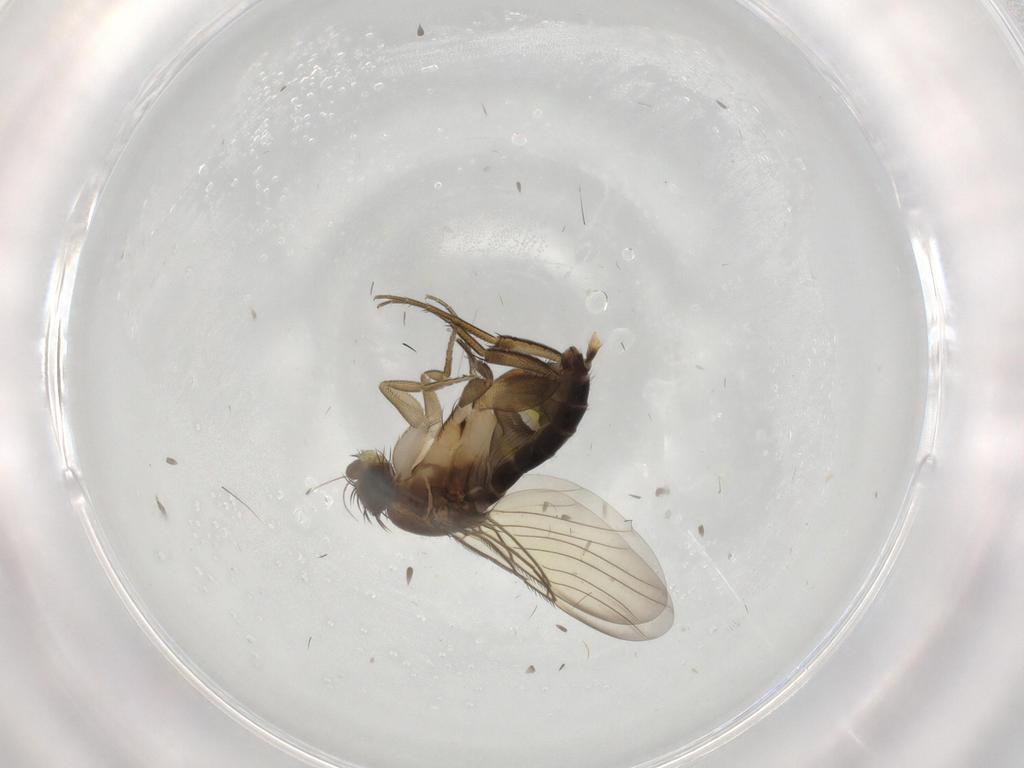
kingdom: Animalia
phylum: Arthropoda
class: Insecta
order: Diptera
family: Phoridae
